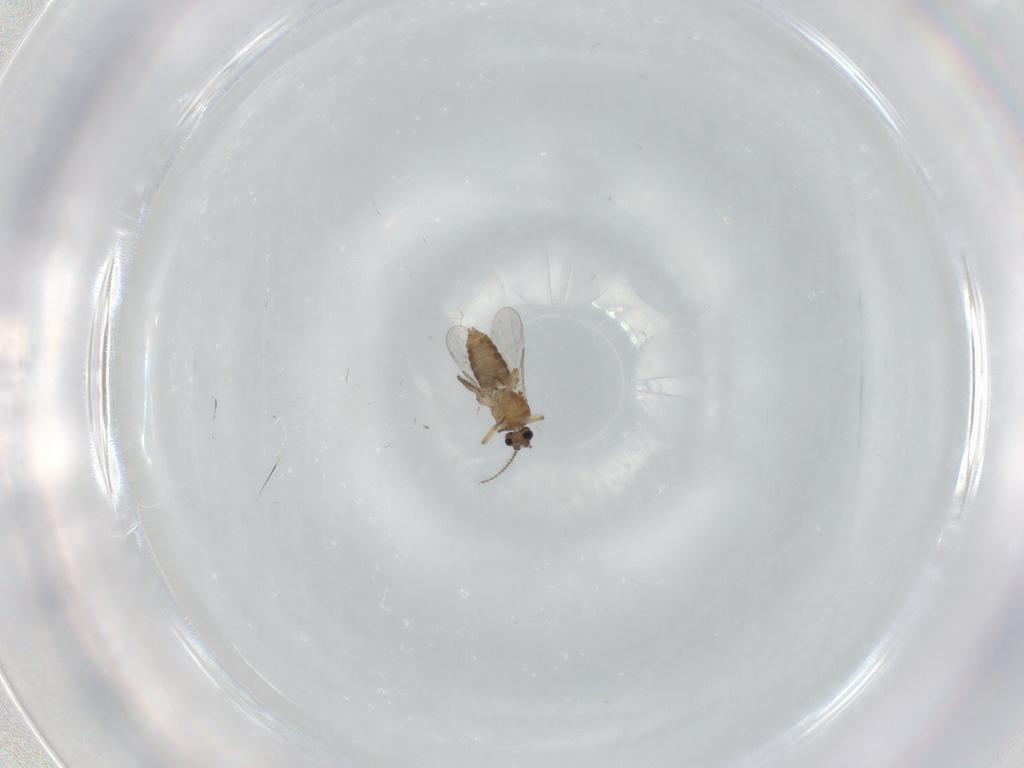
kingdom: Animalia
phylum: Arthropoda
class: Insecta
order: Diptera
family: Ceratopogonidae
